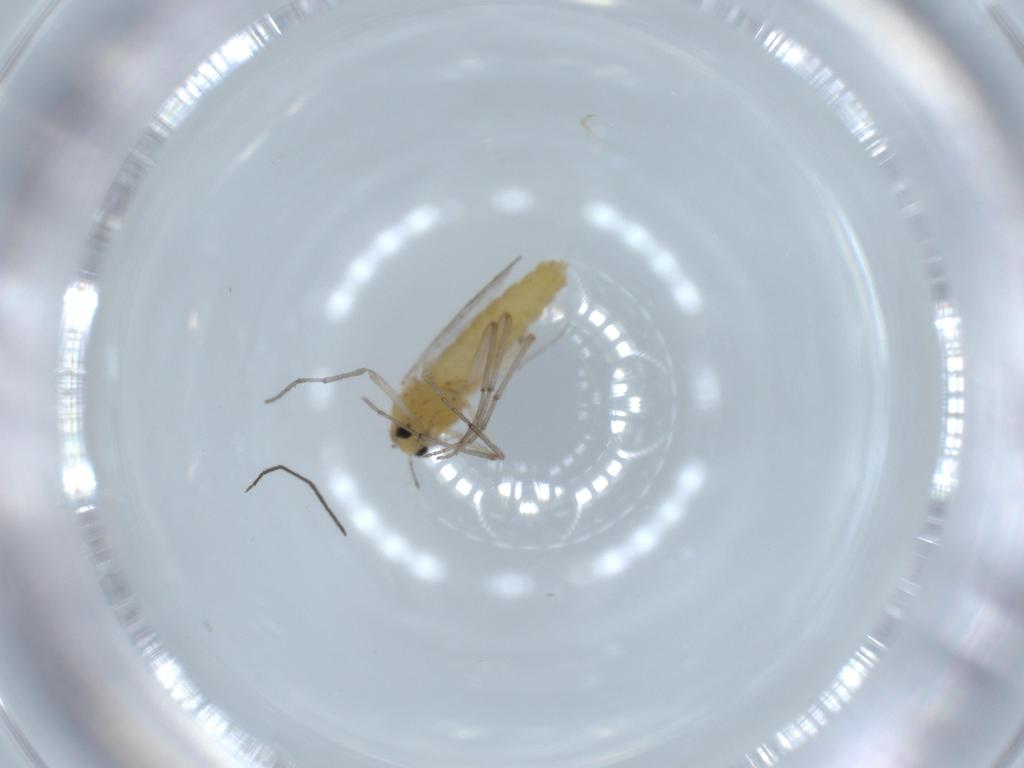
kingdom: Animalia
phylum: Arthropoda
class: Insecta
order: Diptera
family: Chironomidae
